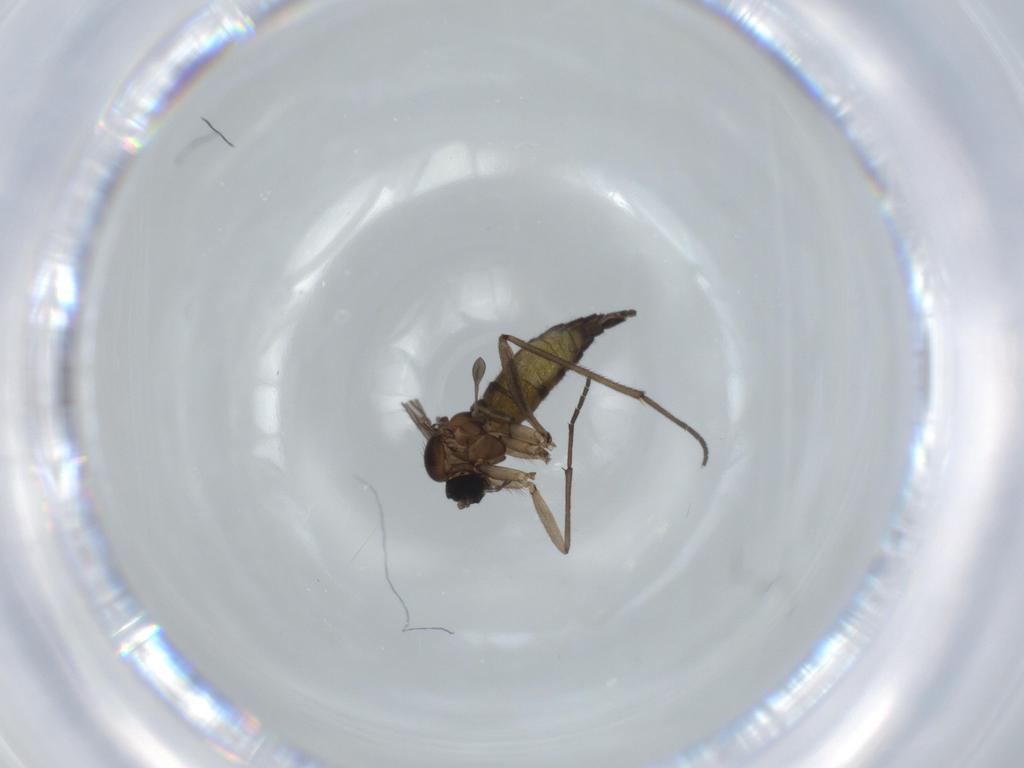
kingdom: Animalia
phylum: Arthropoda
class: Insecta
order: Diptera
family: Sciaridae
